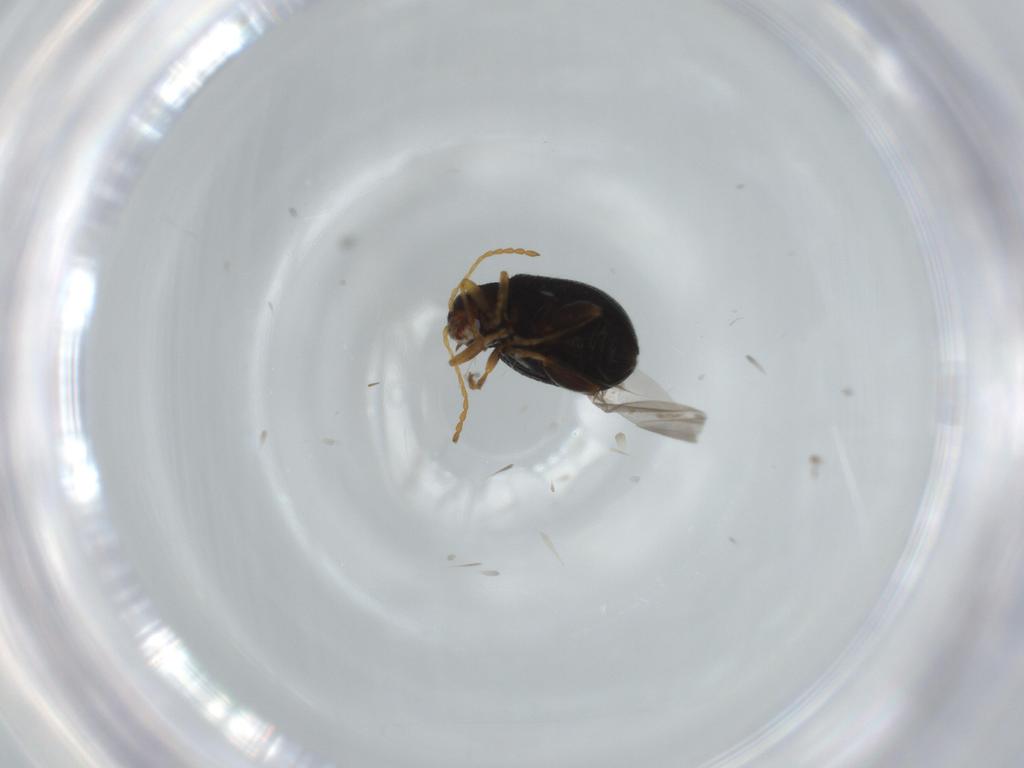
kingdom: Animalia
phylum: Arthropoda
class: Insecta
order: Coleoptera
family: Chrysomelidae
